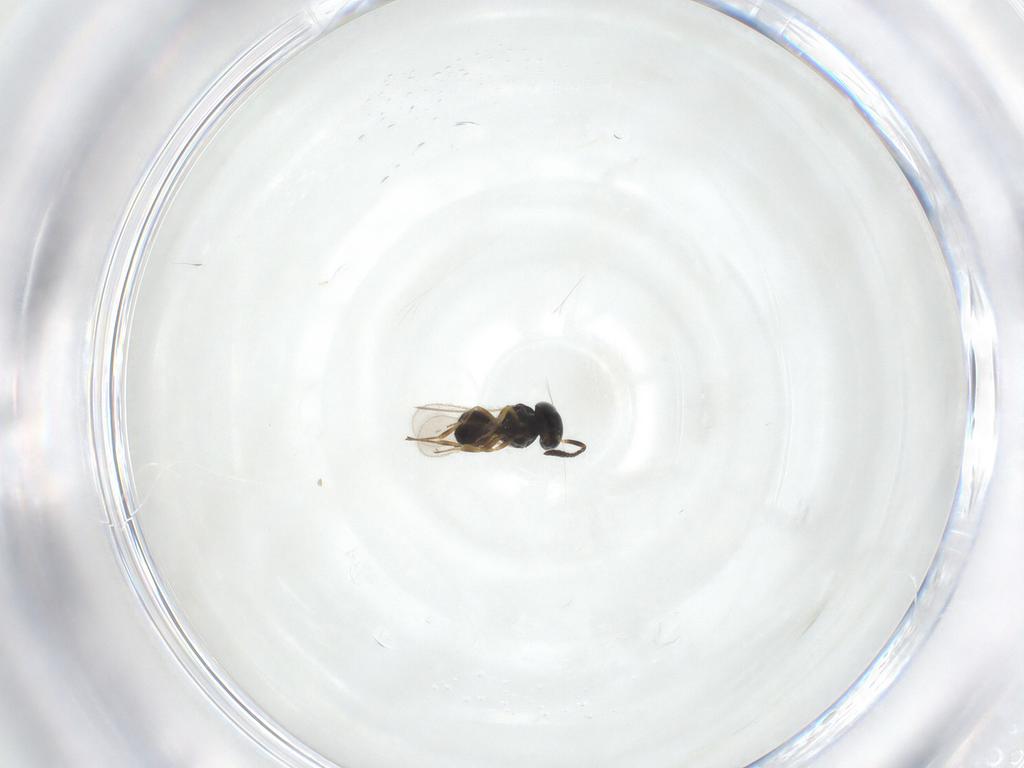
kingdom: Animalia
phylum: Arthropoda
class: Insecta
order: Hymenoptera
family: Scelionidae
